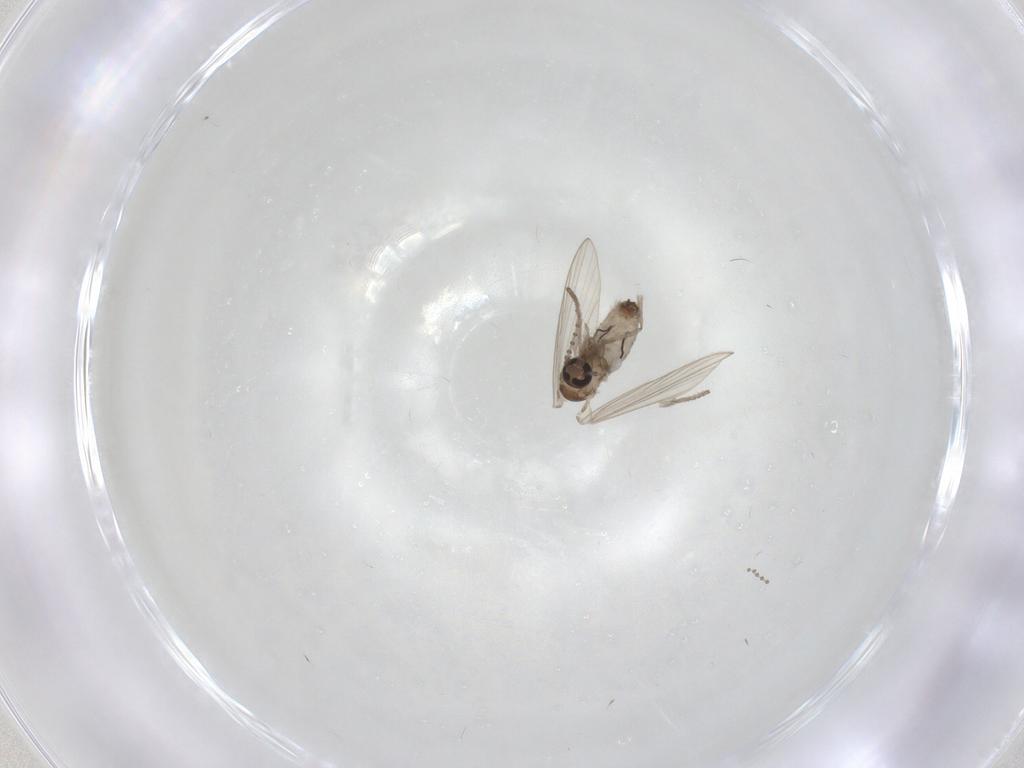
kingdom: Animalia
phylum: Arthropoda
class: Insecta
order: Diptera
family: Psychodidae
